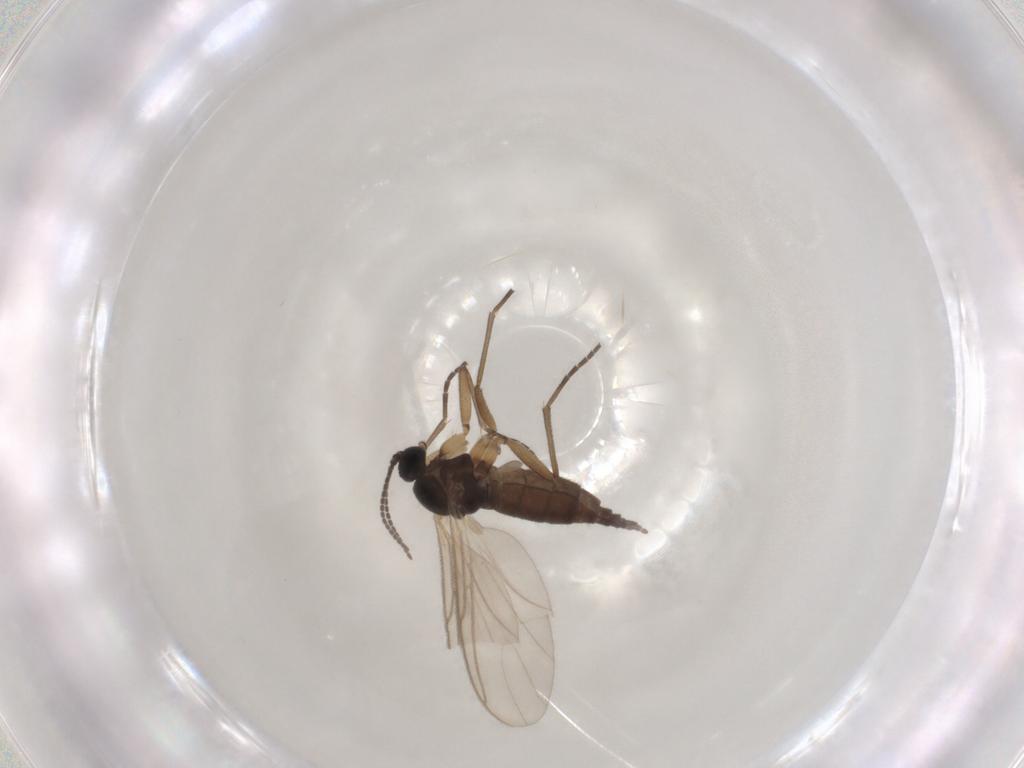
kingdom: Animalia
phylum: Arthropoda
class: Insecta
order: Diptera
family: Sciaridae
